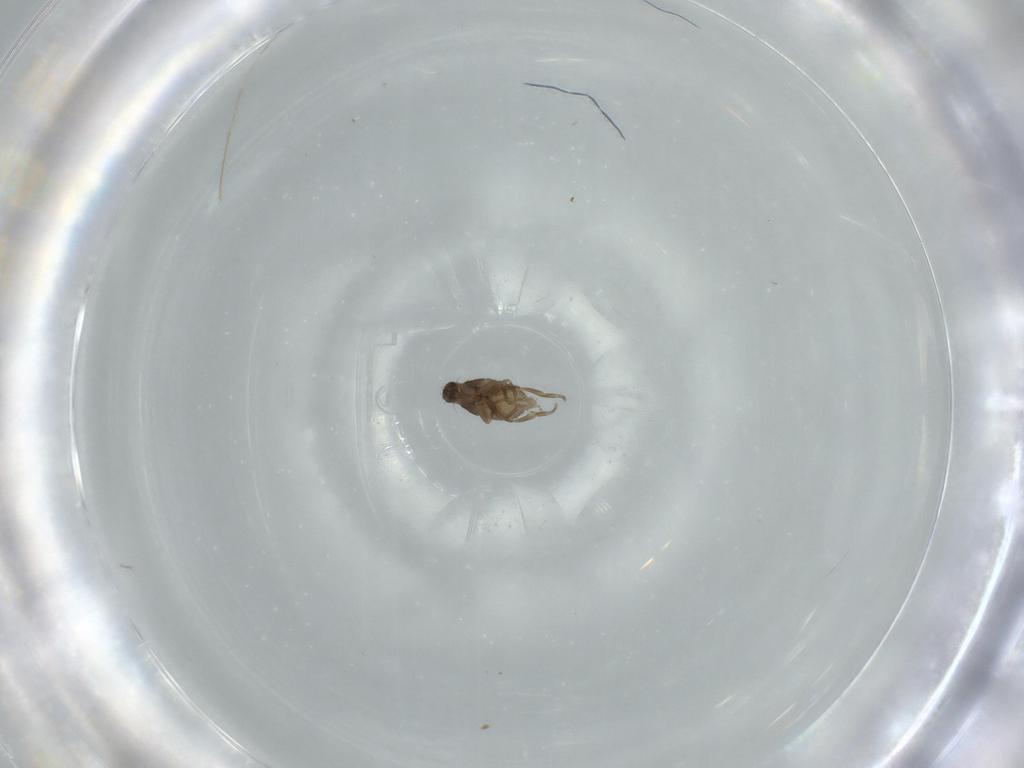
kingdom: Animalia
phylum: Arthropoda
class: Insecta
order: Diptera
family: Phoridae
